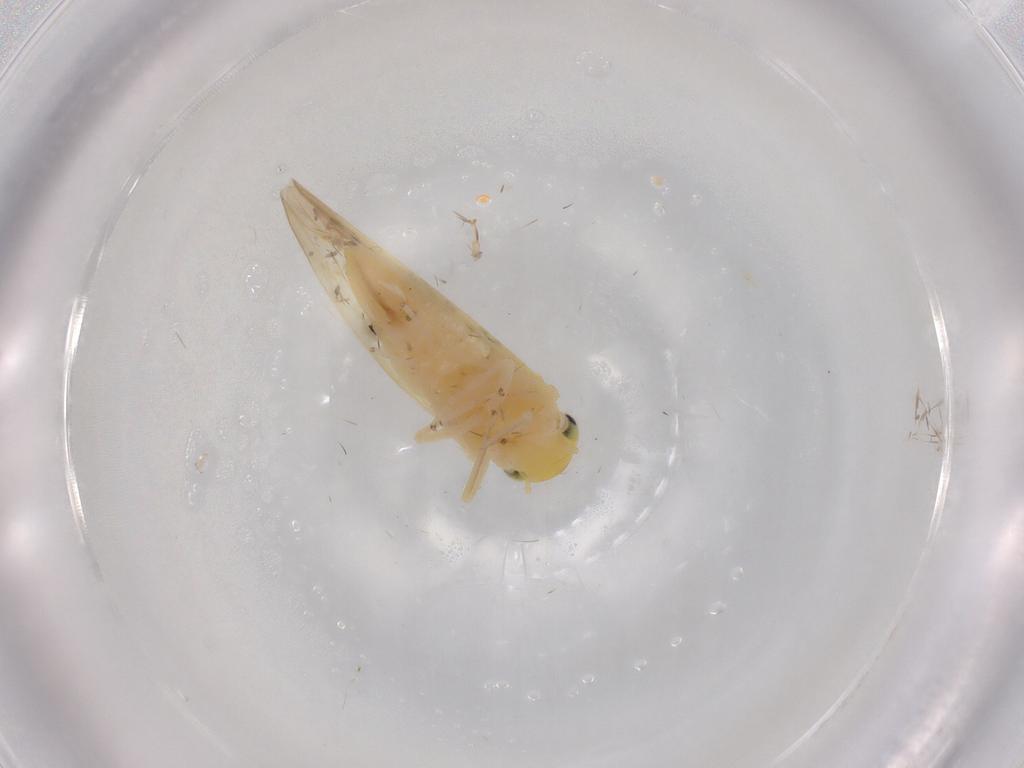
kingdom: Animalia
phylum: Arthropoda
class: Insecta
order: Hemiptera
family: Cicadellidae
